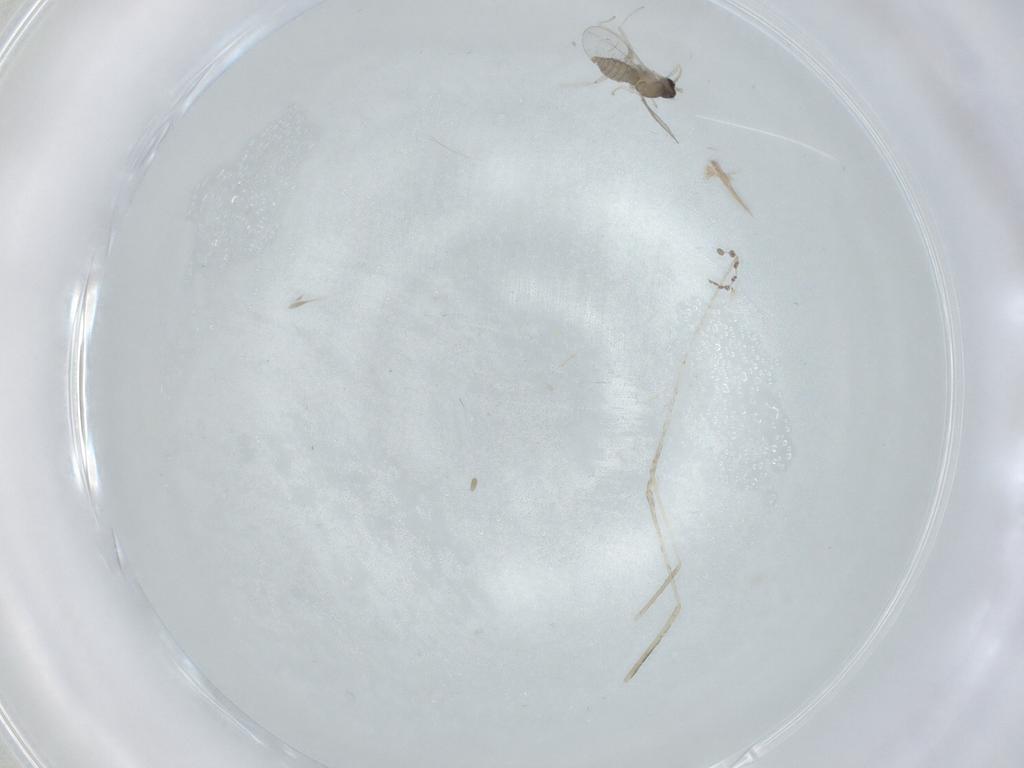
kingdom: Animalia
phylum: Arthropoda
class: Insecta
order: Diptera
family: Cecidomyiidae
